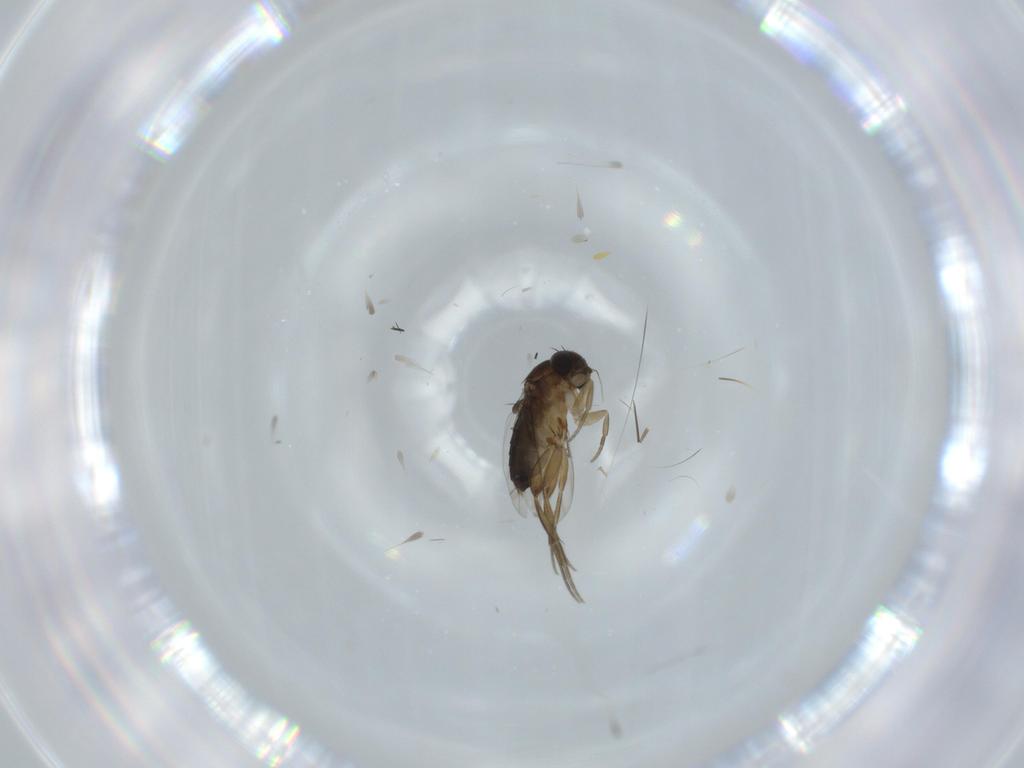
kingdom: Animalia
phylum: Arthropoda
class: Insecta
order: Diptera
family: Phoridae
